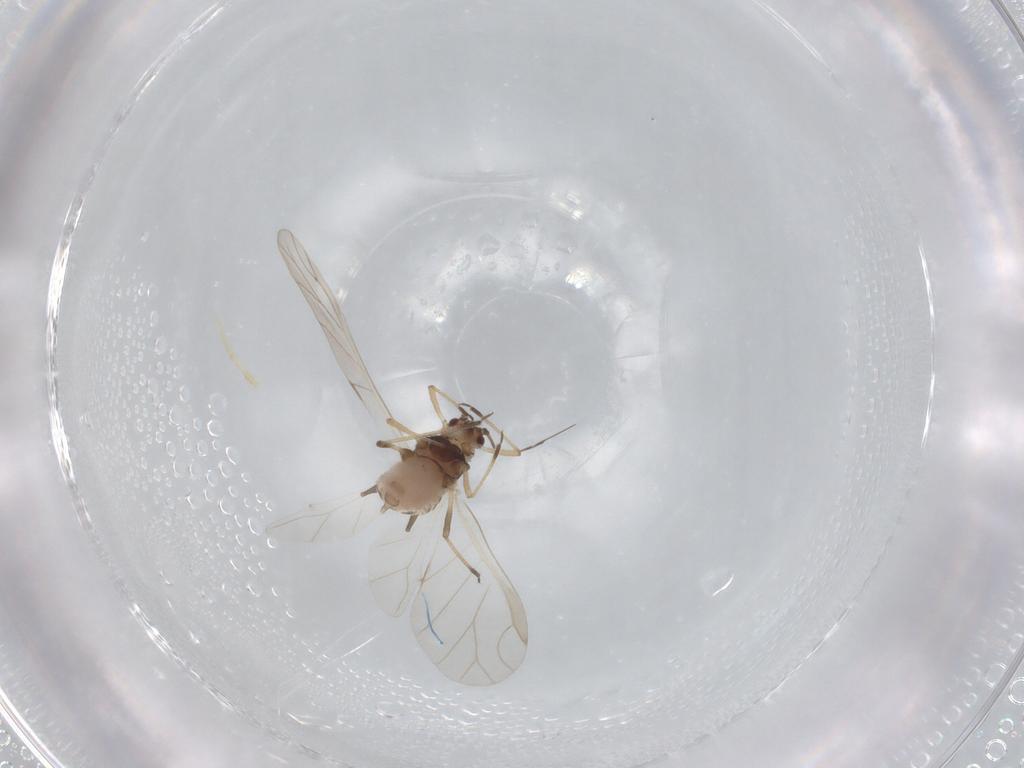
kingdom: Animalia
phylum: Arthropoda
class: Insecta
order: Hemiptera
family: Aphididae
